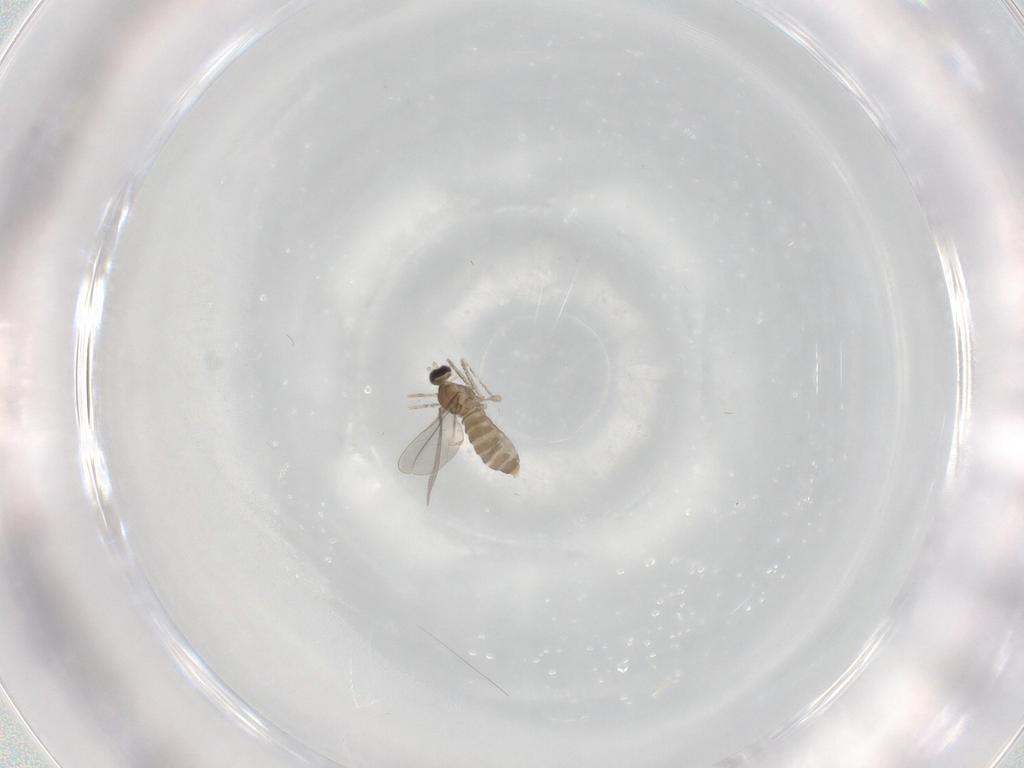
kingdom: Animalia
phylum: Arthropoda
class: Insecta
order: Diptera
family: Cecidomyiidae
